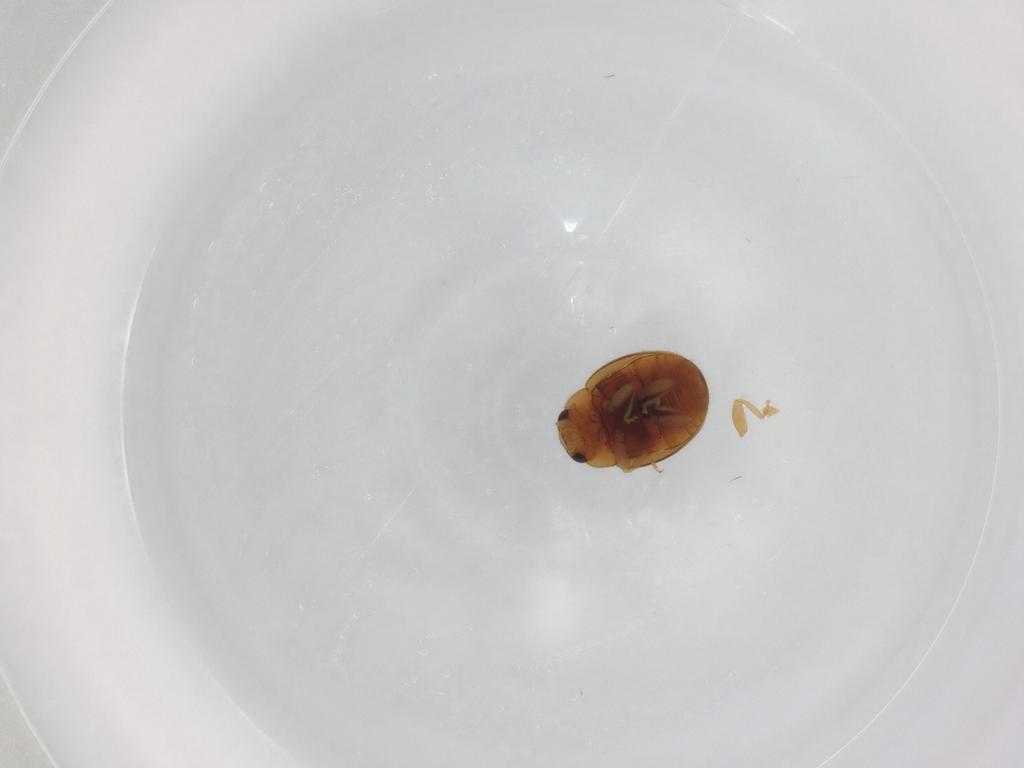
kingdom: Animalia
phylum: Arthropoda
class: Insecta
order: Coleoptera
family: Coccinellidae
